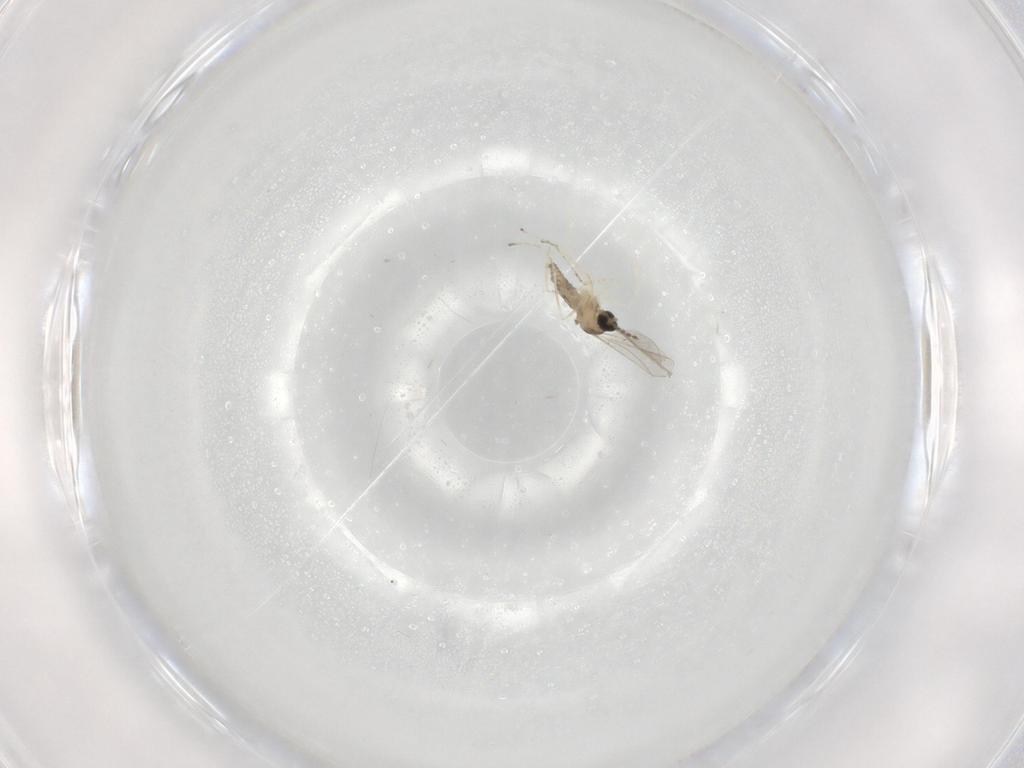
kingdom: Animalia
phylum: Arthropoda
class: Insecta
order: Diptera
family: Cecidomyiidae
